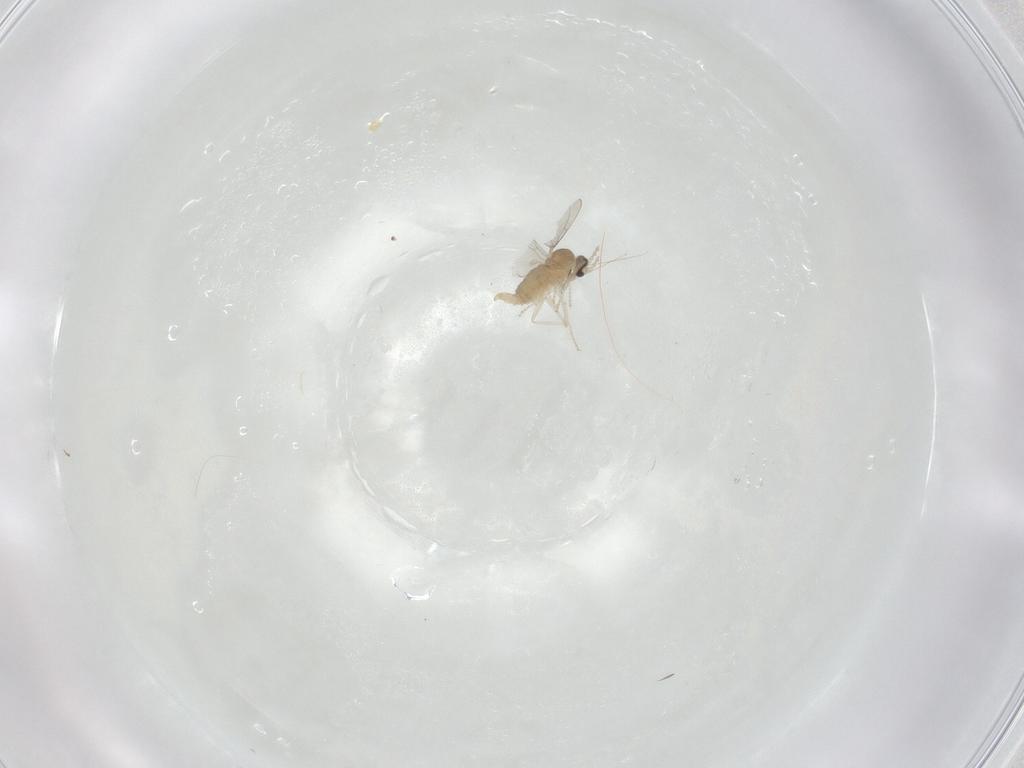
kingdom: Animalia
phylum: Arthropoda
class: Insecta
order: Diptera
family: Cecidomyiidae
